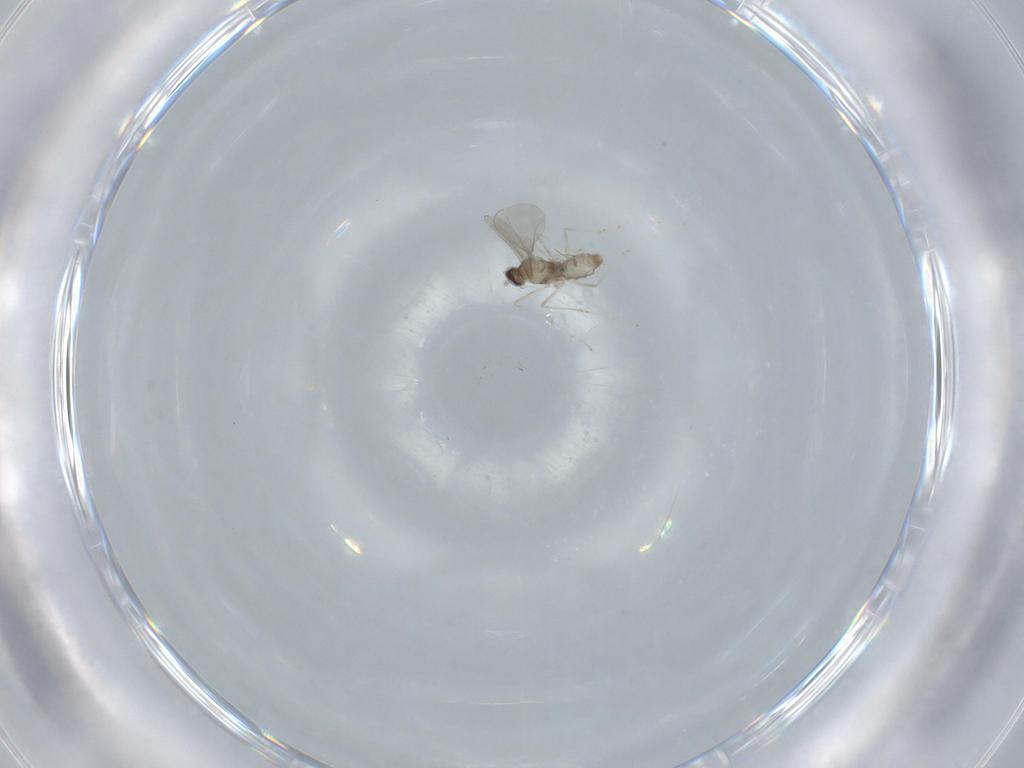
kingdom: Animalia
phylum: Arthropoda
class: Insecta
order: Diptera
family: Cecidomyiidae
